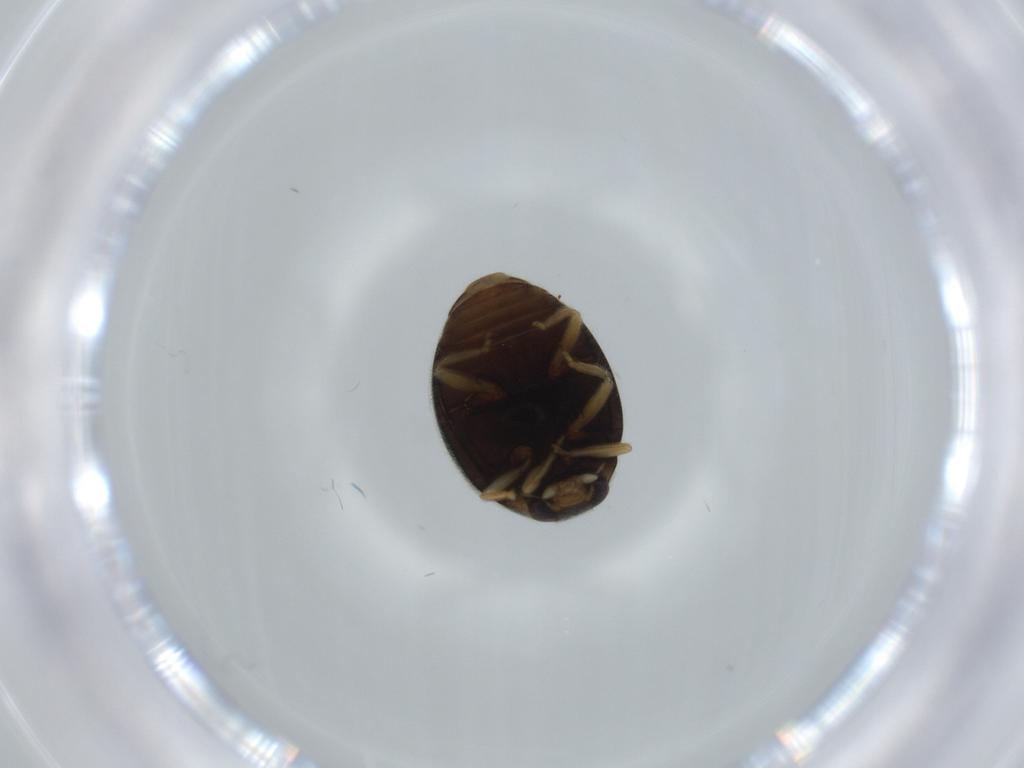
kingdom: Animalia
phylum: Arthropoda
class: Insecta
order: Coleoptera
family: Coccinellidae
